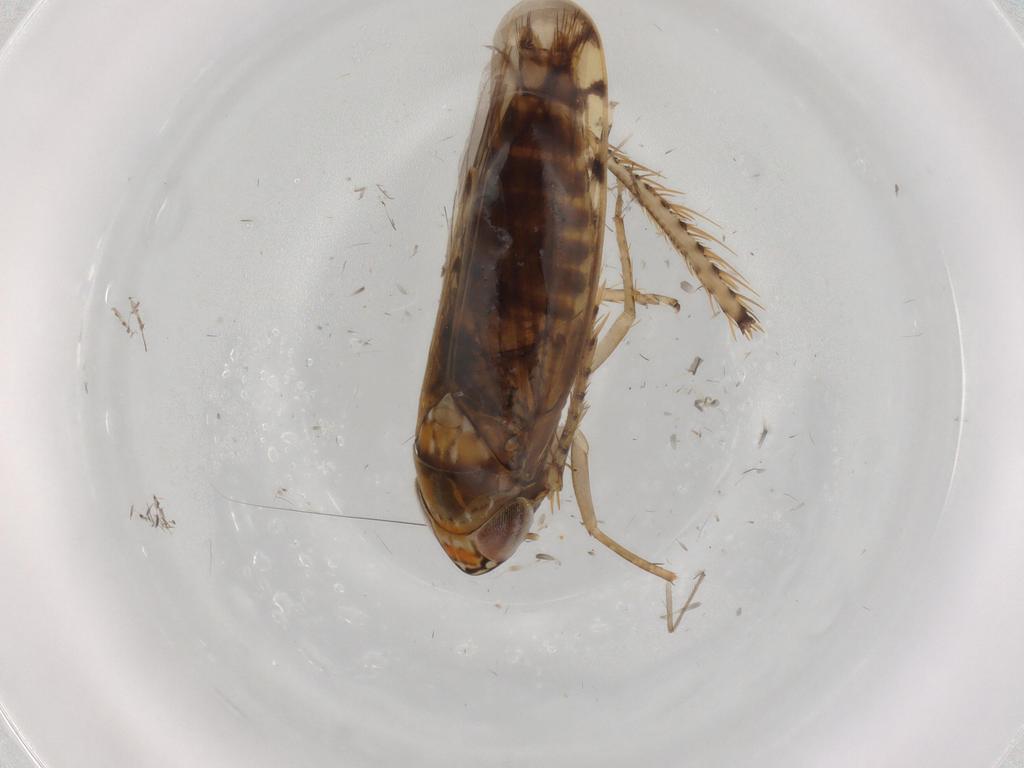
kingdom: Animalia
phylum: Arthropoda
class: Insecta
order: Hemiptera
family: Cicadellidae
